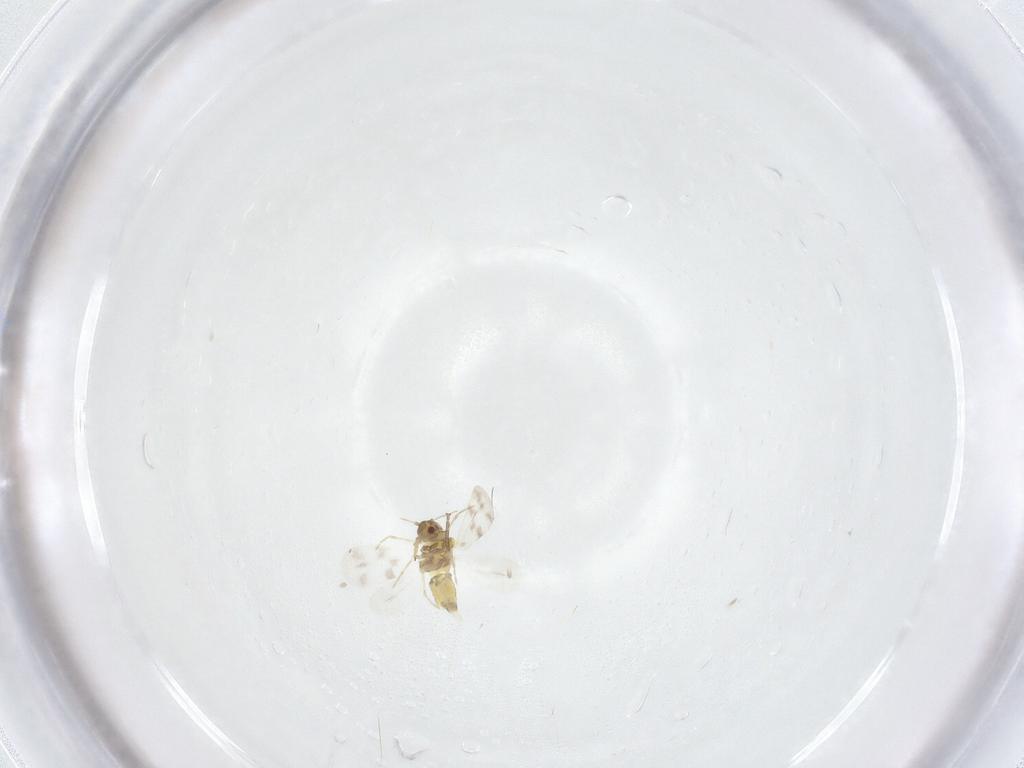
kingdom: Animalia
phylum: Arthropoda
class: Insecta
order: Hemiptera
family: Aleyrodidae
